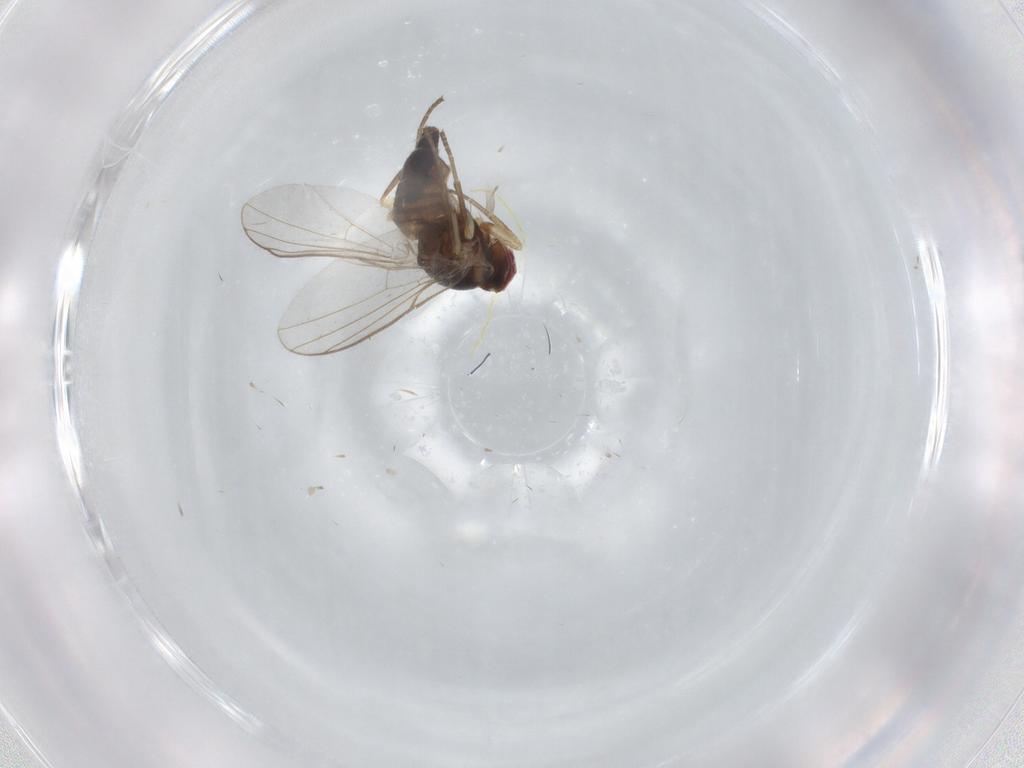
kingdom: Animalia
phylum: Arthropoda
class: Insecta
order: Diptera
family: Agromyzidae
